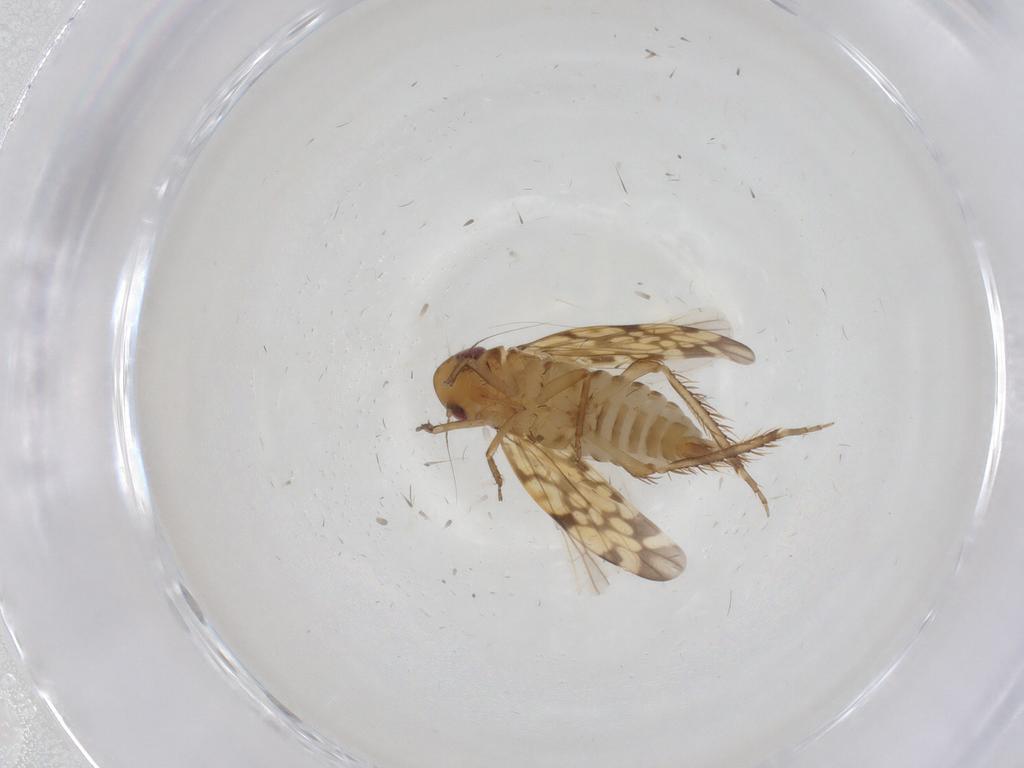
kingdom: Animalia
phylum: Arthropoda
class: Insecta
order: Hemiptera
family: Cicadellidae
